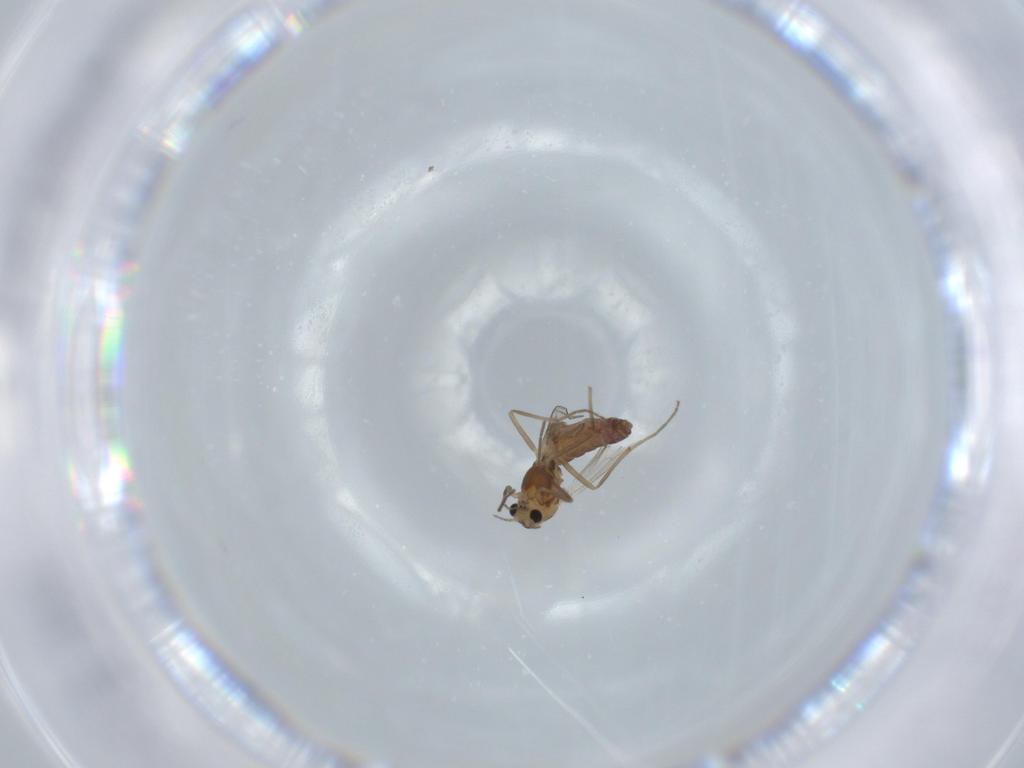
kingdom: Animalia
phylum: Arthropoda
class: Insecta
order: Diptera
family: Chironomidae
